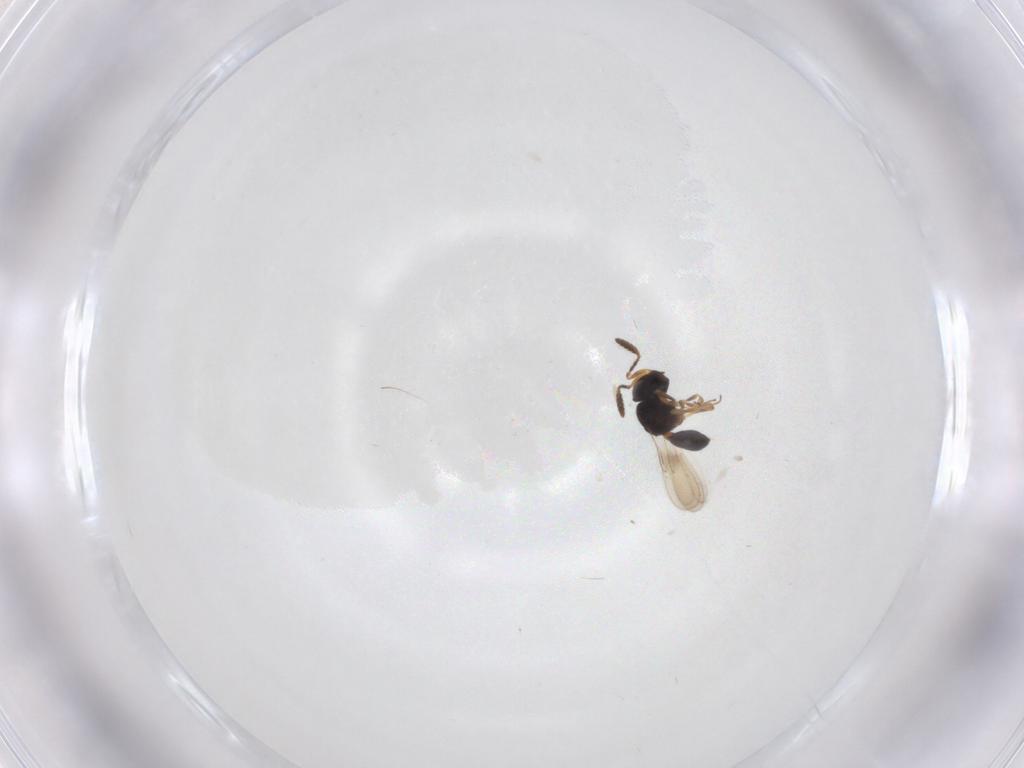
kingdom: Animalia
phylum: Arthropoda
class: Insecta
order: Hymenoptera
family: Scelionidae
